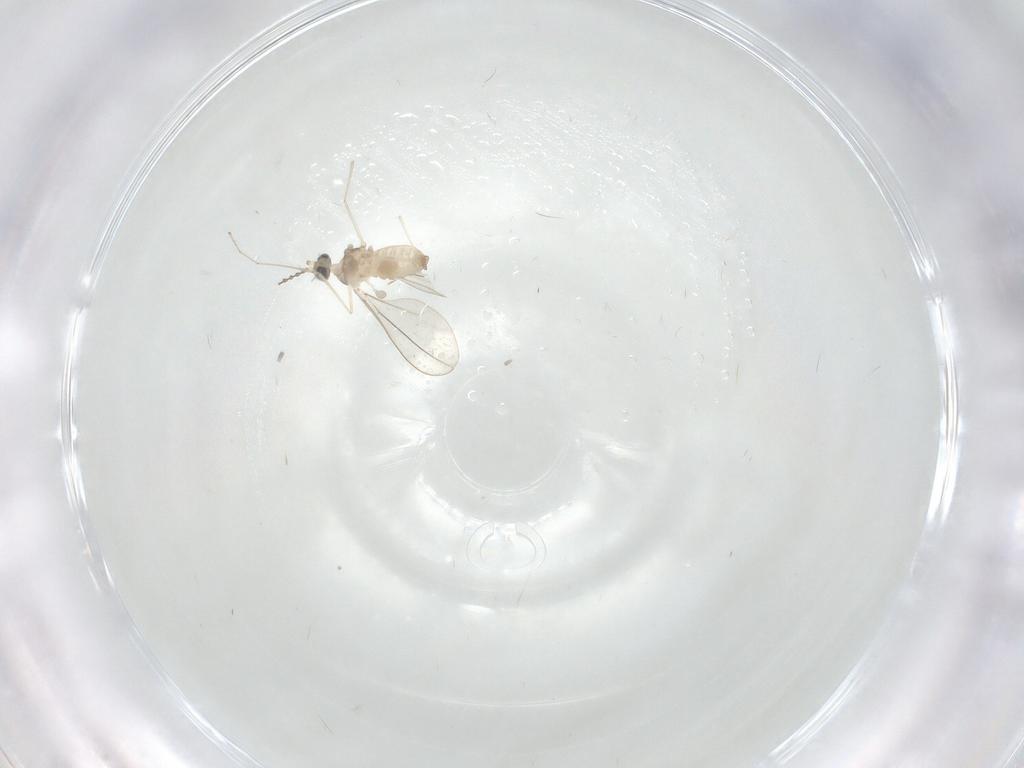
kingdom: Animalia
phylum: Arthropoda
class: Insecta
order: Diptera
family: Cecidomyiidae
